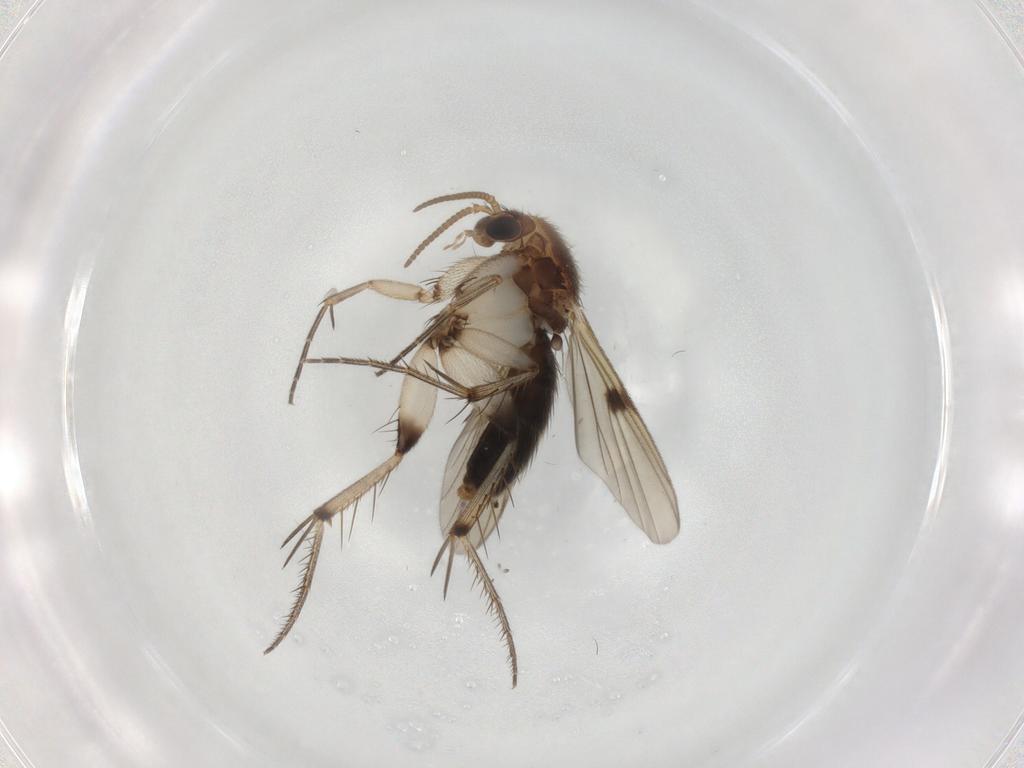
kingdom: Animalia
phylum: Arthropoda
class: Insecta
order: Diptera
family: Mycetophilidae
